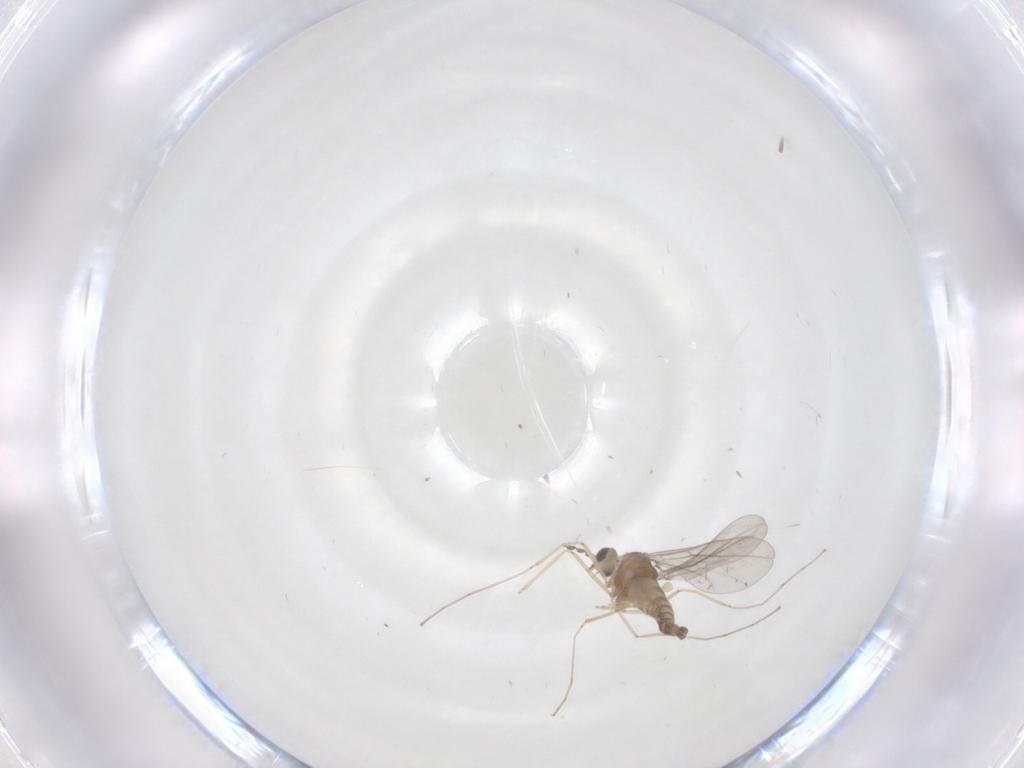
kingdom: Animalia
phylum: Arthropoda
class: Insecta
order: Diptera
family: Cecidomyiidae
